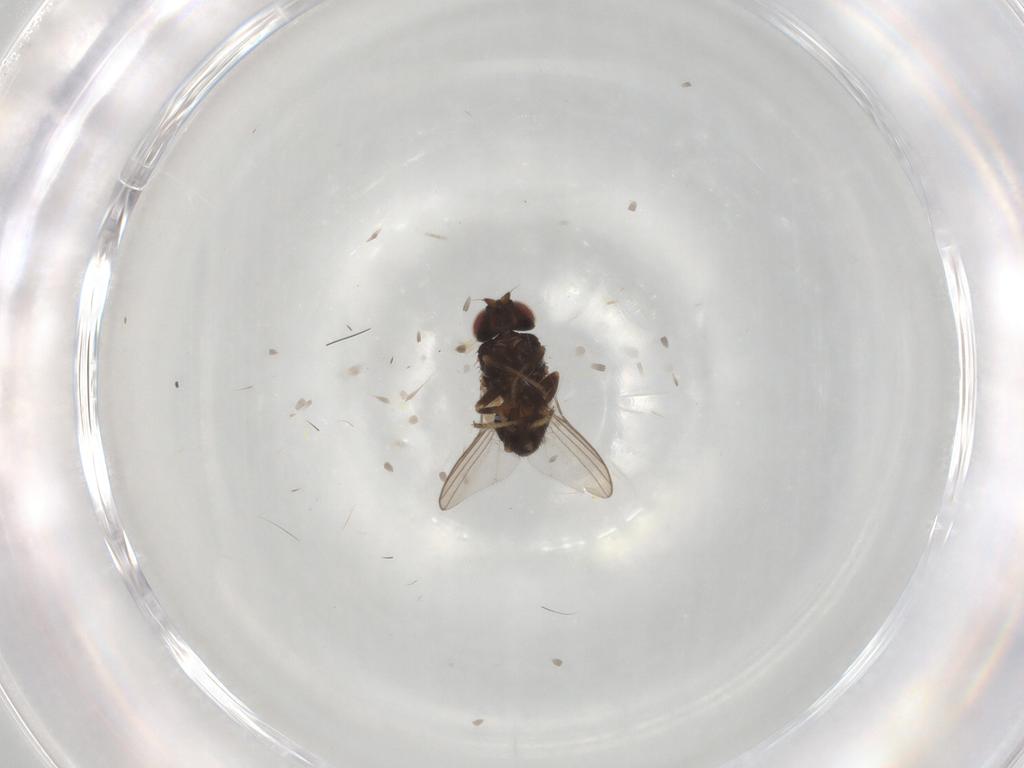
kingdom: Animalia
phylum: Arthropoda
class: Insecta
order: Diptera
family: Chloropidae
